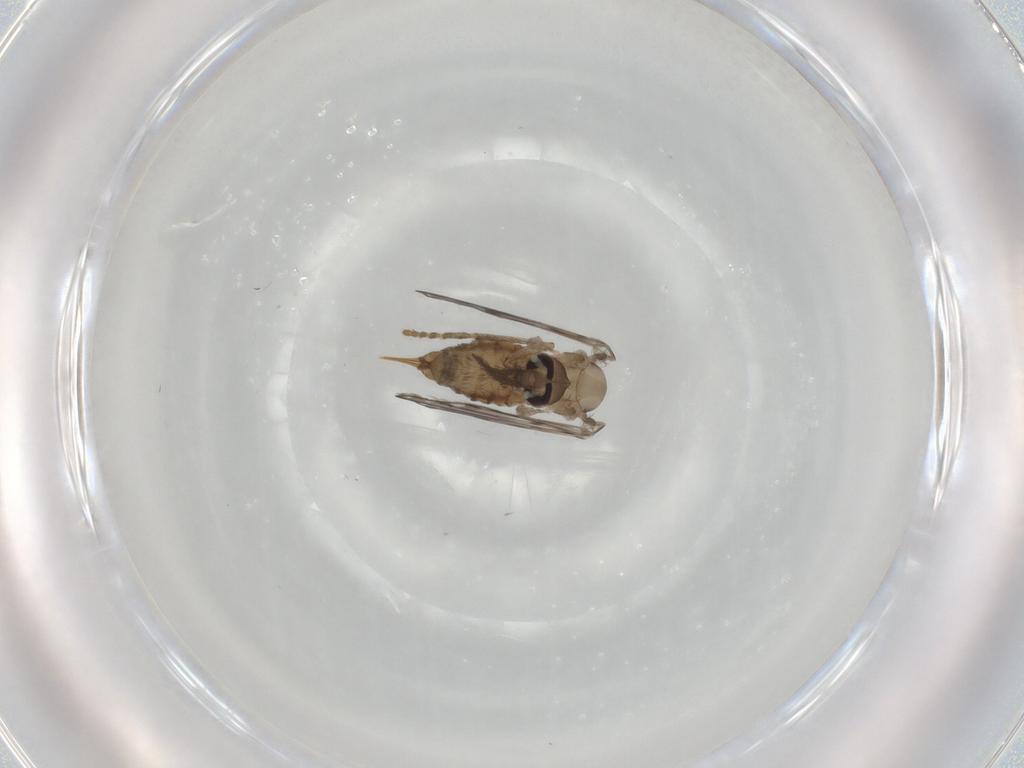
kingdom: Animalia
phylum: Arthropoda
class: Insecta
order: Diptera
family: Psychodidae
